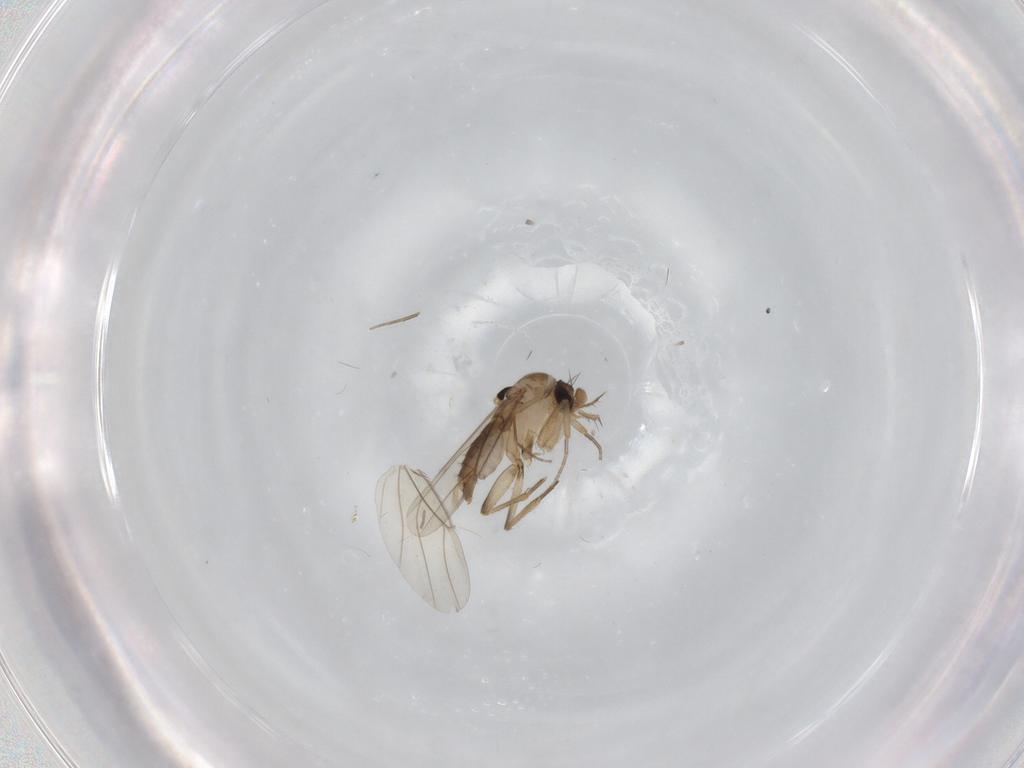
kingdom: Animalia
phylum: Arthropoda
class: Insecta
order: Diptera
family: Phoridae
